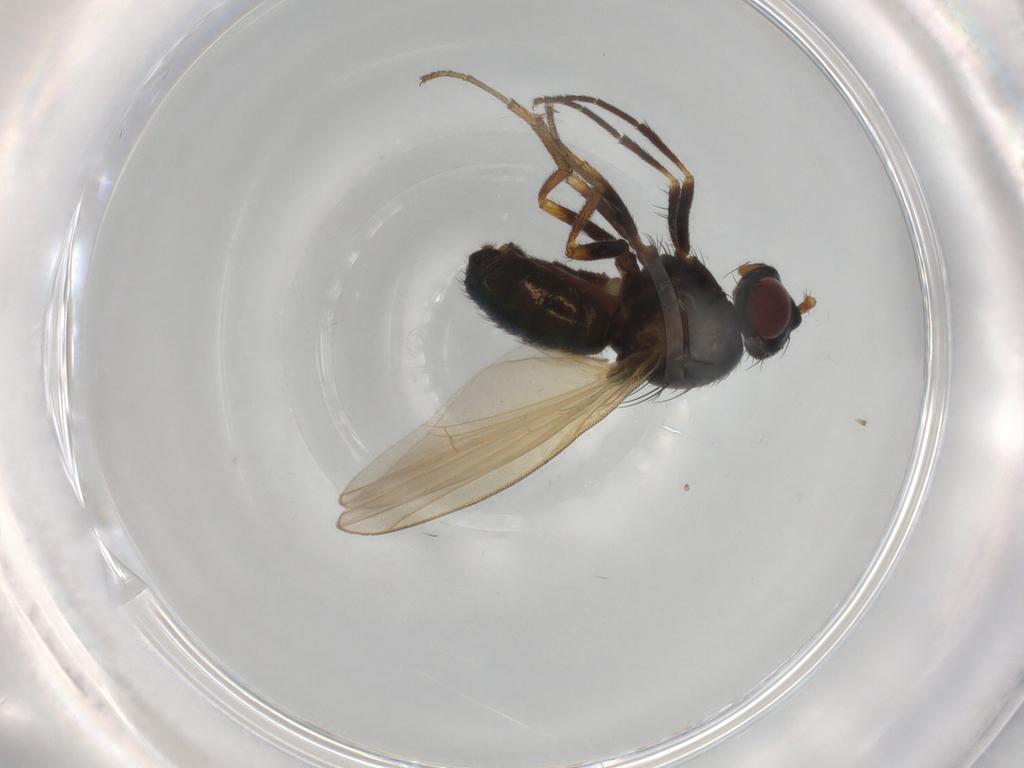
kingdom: Animalia
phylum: Arthropoda
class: Insecta
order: Diptera
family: Lauxaniidae
